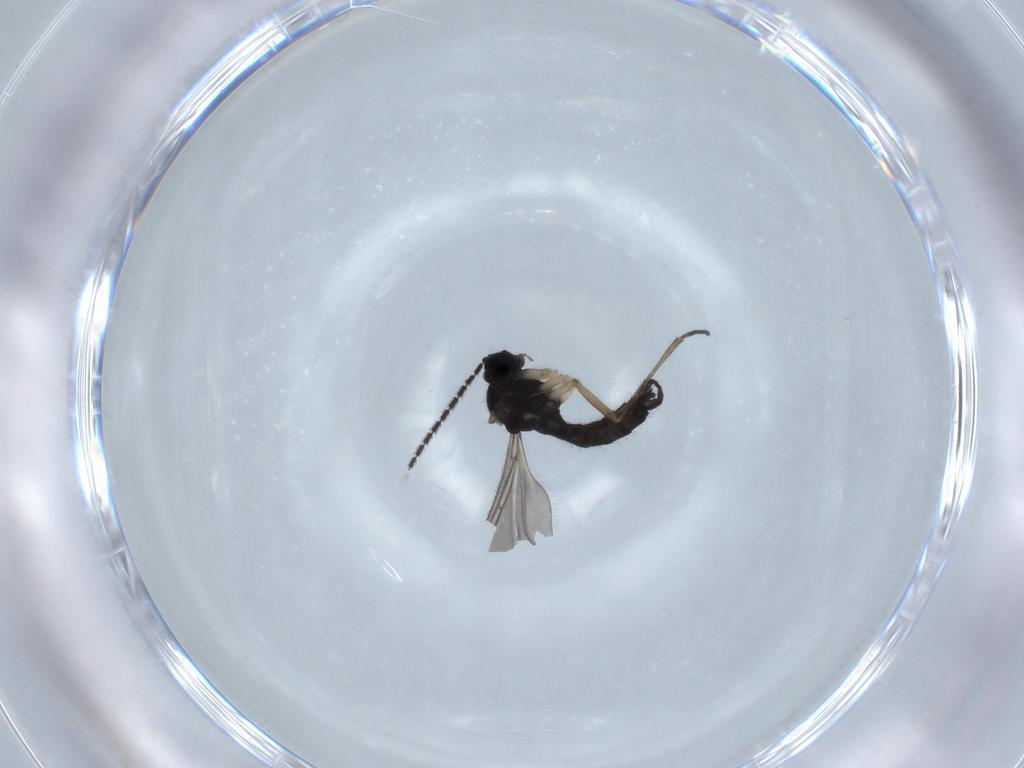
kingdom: Animalia
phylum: Arthropoda
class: Insecta
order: Diptera
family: Sciaridae
